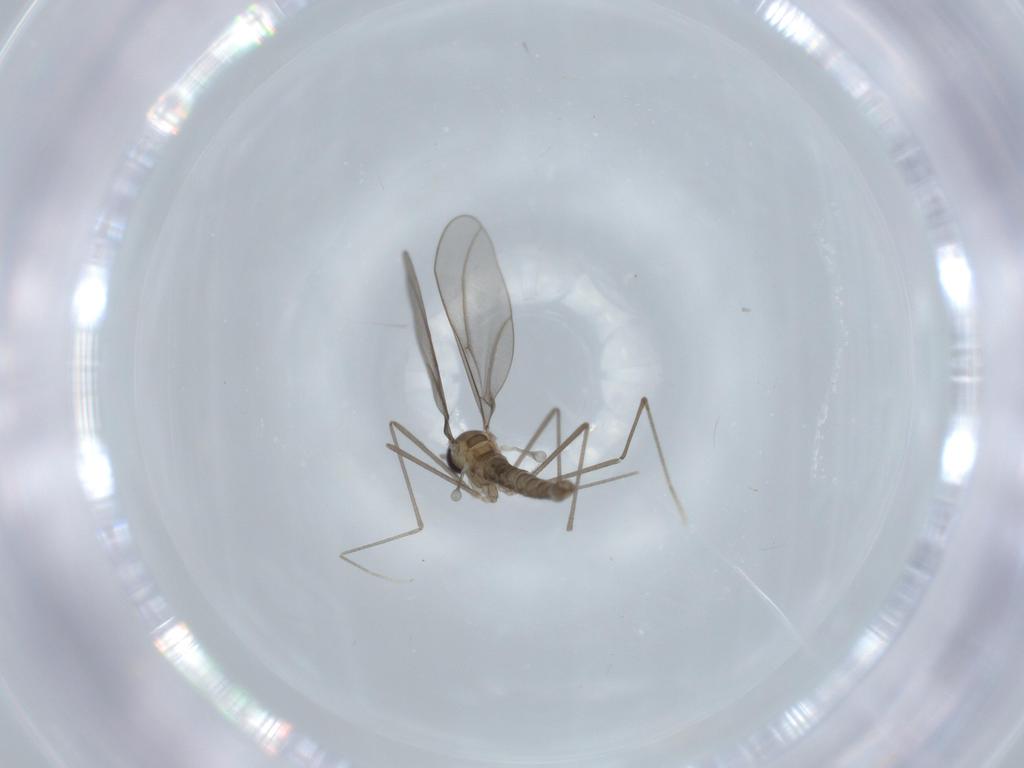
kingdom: Animalia
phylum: Arthropoda
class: Insecta
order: Diptera
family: Cecidomyiidae
